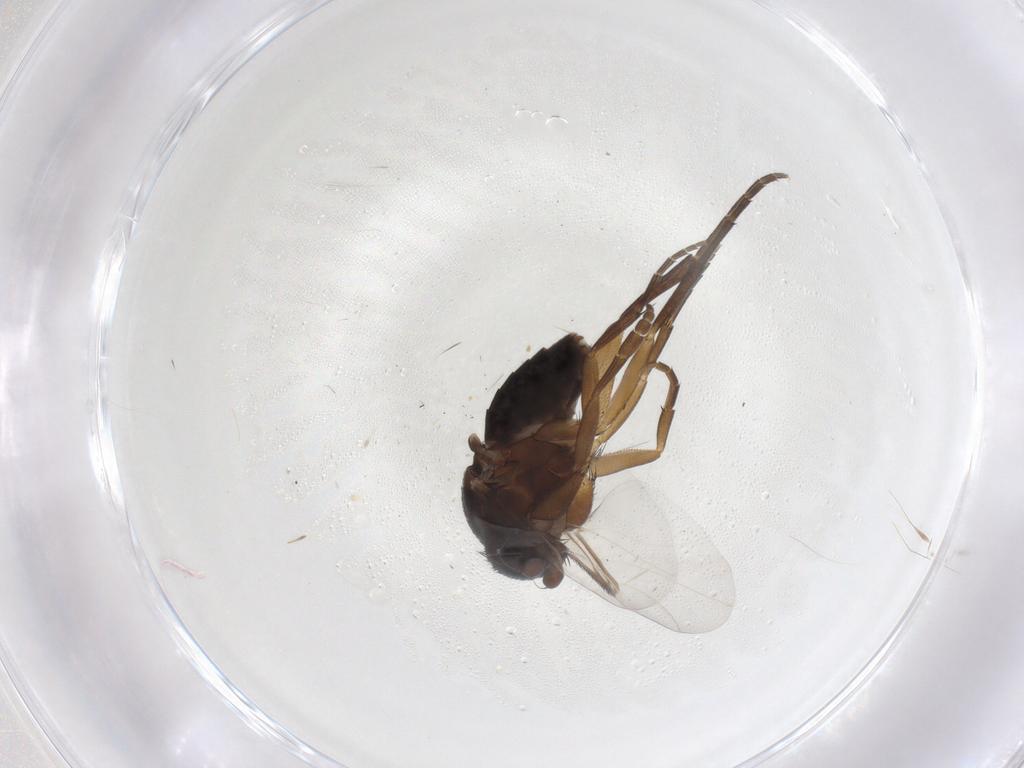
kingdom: Animalia
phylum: Arthropoda
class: Insecta
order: Diptera
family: Phoridae
